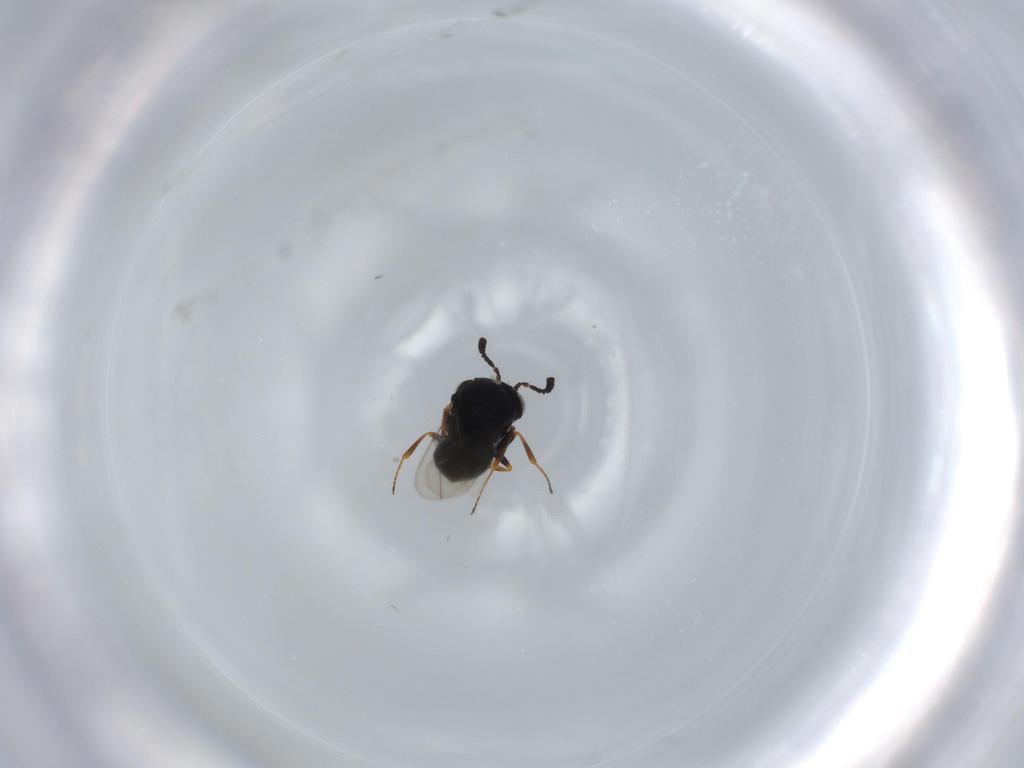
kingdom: Animalia
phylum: Arthropoda
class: Insecta
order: Hymenoptera
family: Scelionidae
